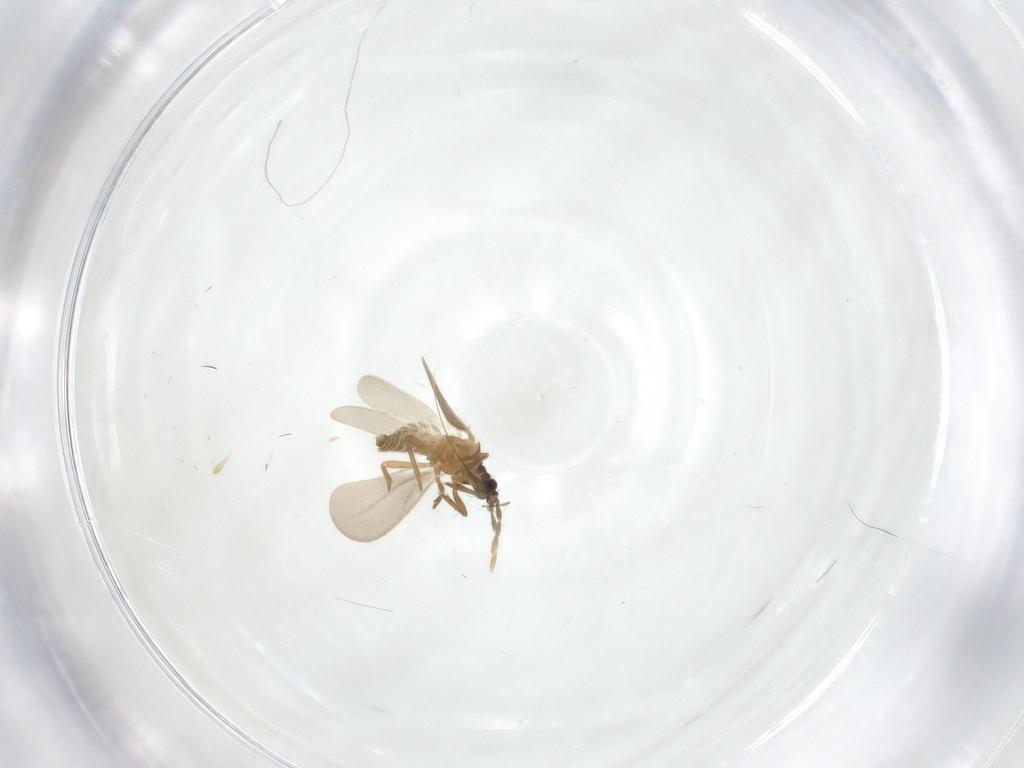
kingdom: Animalia
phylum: Arthropoda
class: Insecta
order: Hemiptera
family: Enicocephalidae
